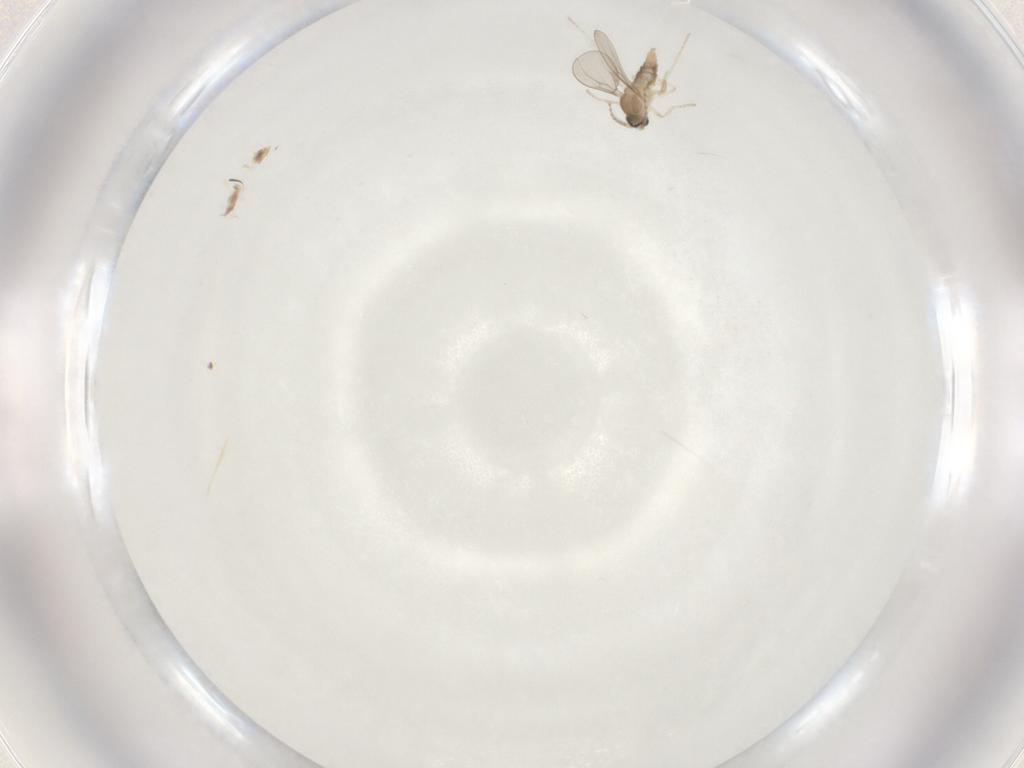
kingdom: Animalia
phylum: Arthropoda
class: Insecta
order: Diptera
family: Cecidomyiidae
